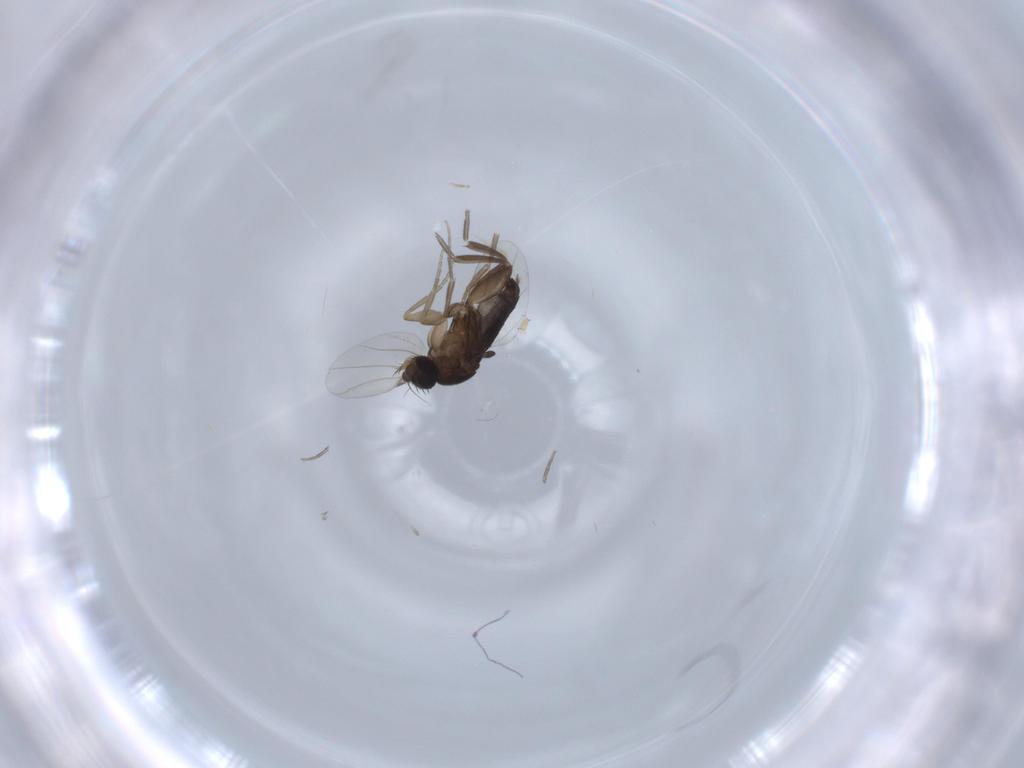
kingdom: Animalia
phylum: Arthropoda
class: Insecta
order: Diptera
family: Phoridae
